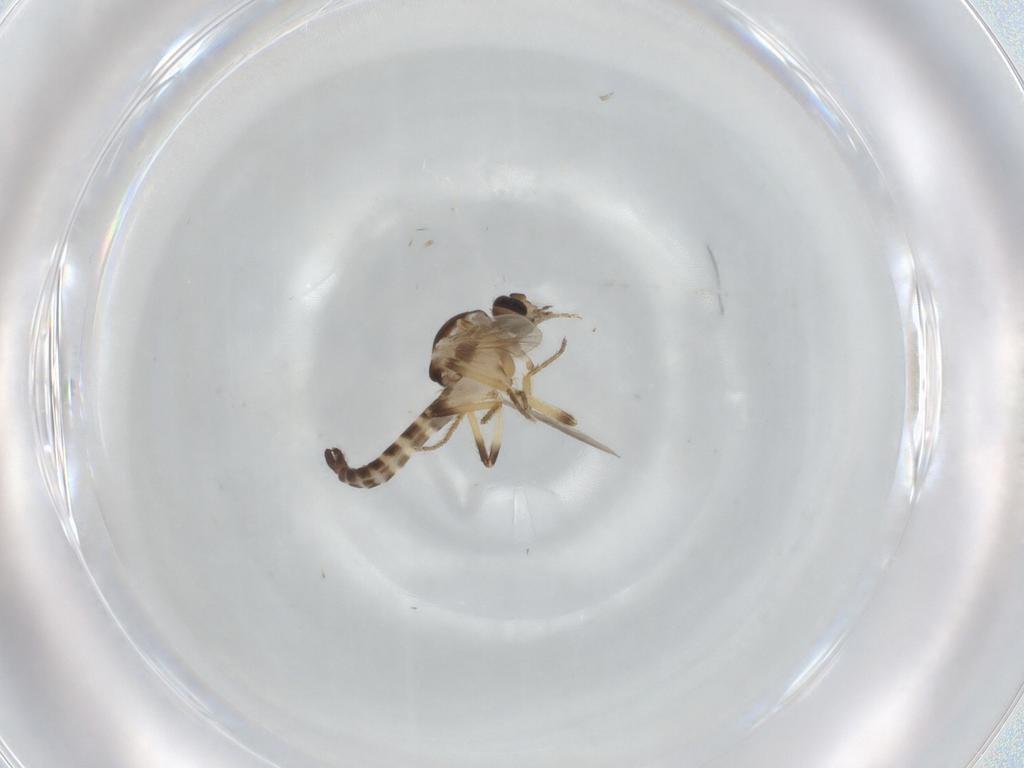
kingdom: Animalia
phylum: Arthropoda
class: Insecta
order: Diptera
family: Ceratopogonidae
